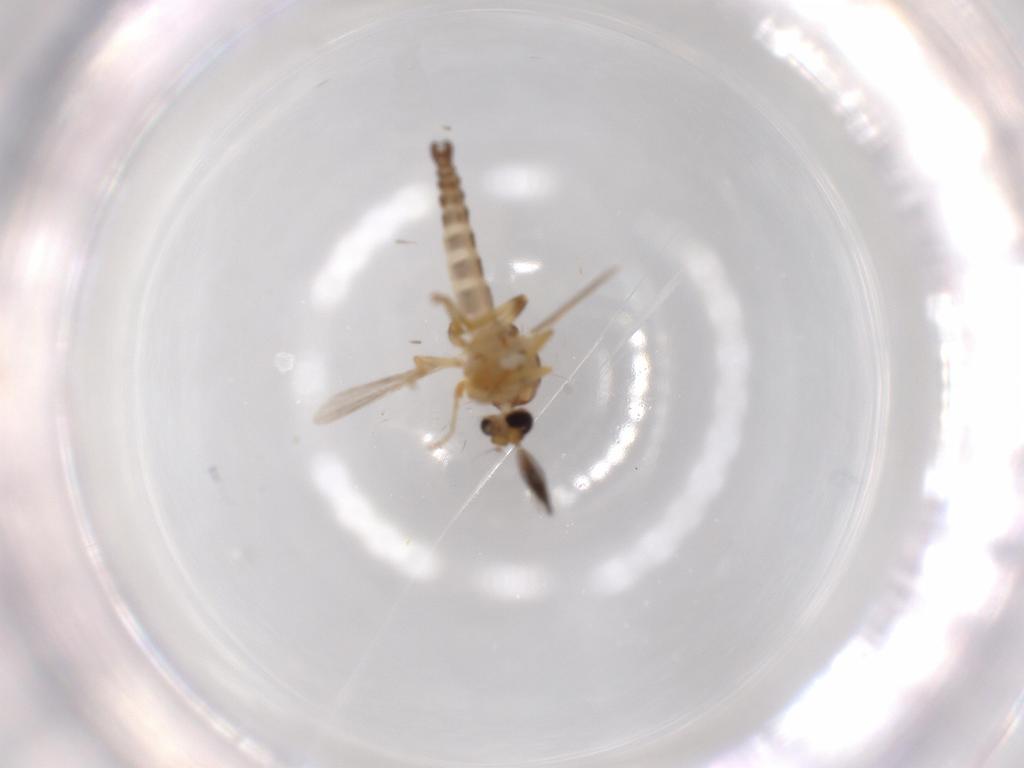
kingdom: Animalia
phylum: Arthropoda
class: Insecta
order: Diptera
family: Ceratopogonidae
